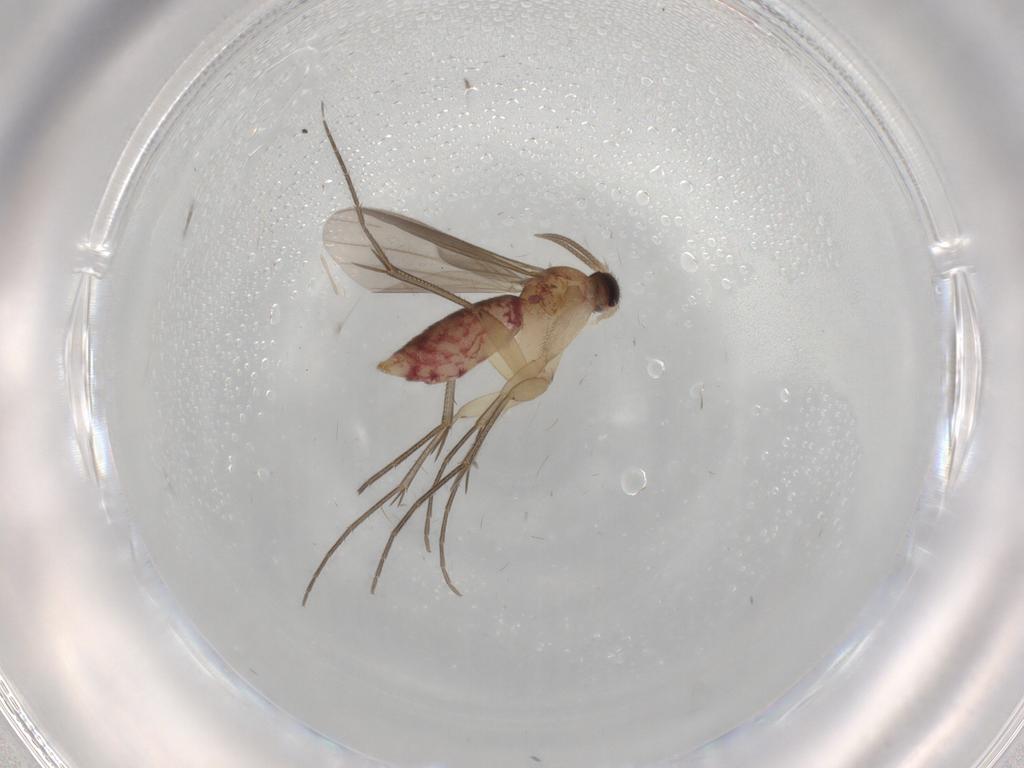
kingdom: Animalia
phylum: Arthropoda
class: Insecta
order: Diptera
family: Mycetophilidae
